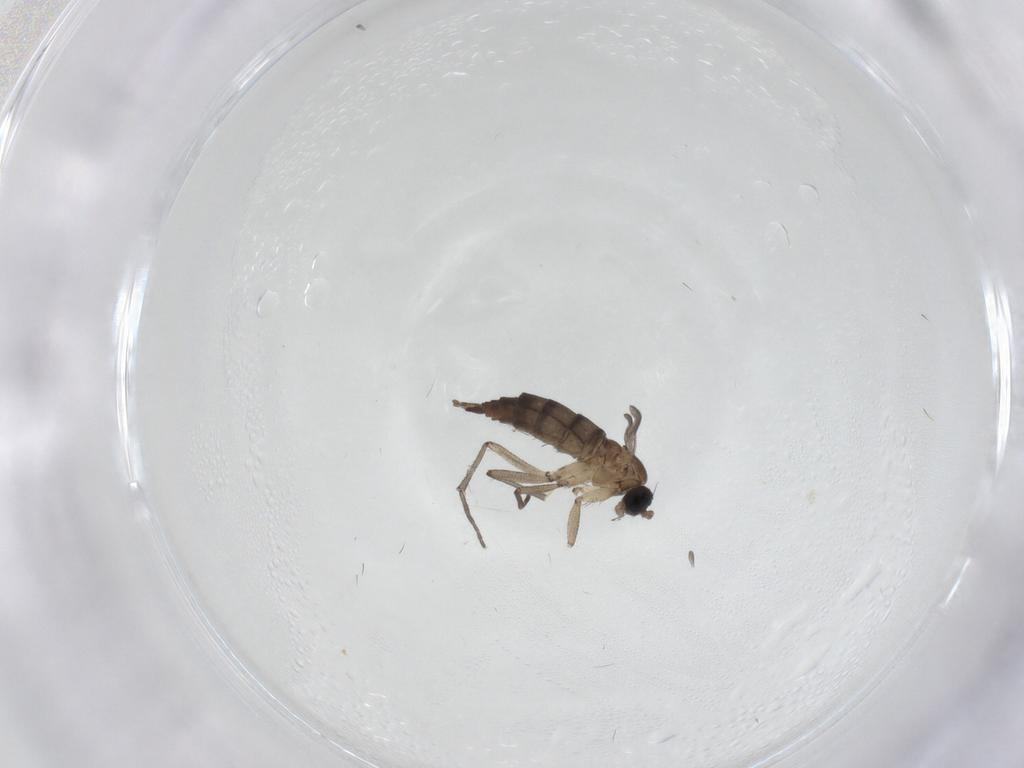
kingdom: Animalia
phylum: Arthropoda
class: Insecta
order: Diptera
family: Sciaridae
